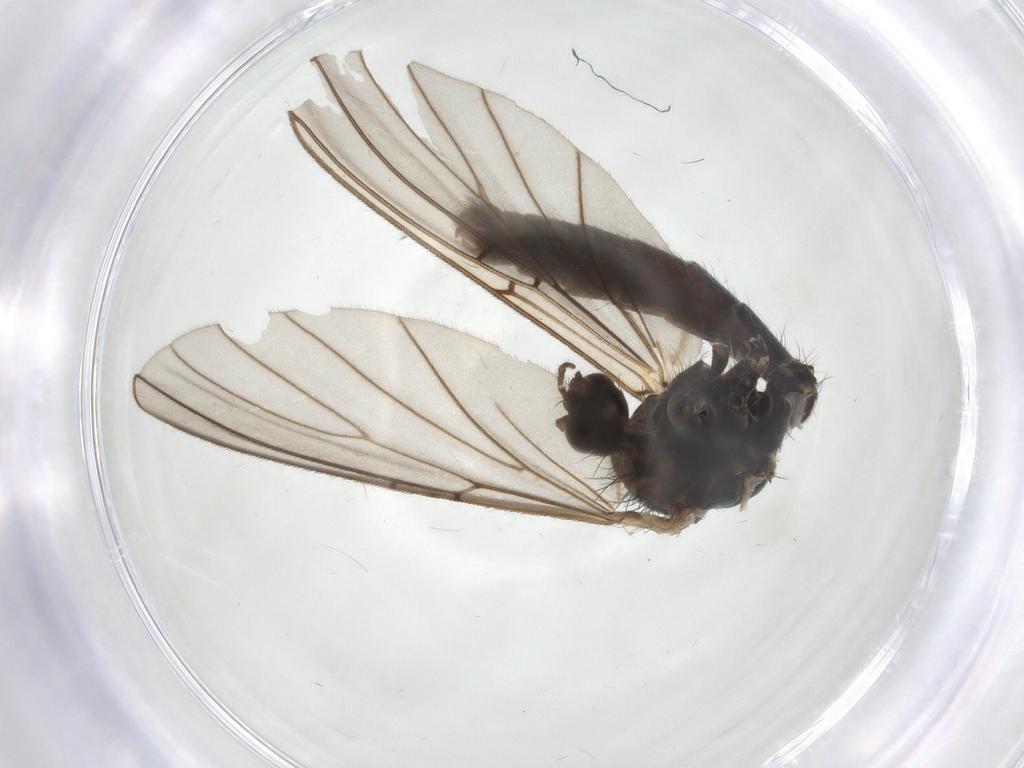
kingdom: Animalia
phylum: Arthropoda
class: Insecta
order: Diptera
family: Mycetophilidae
